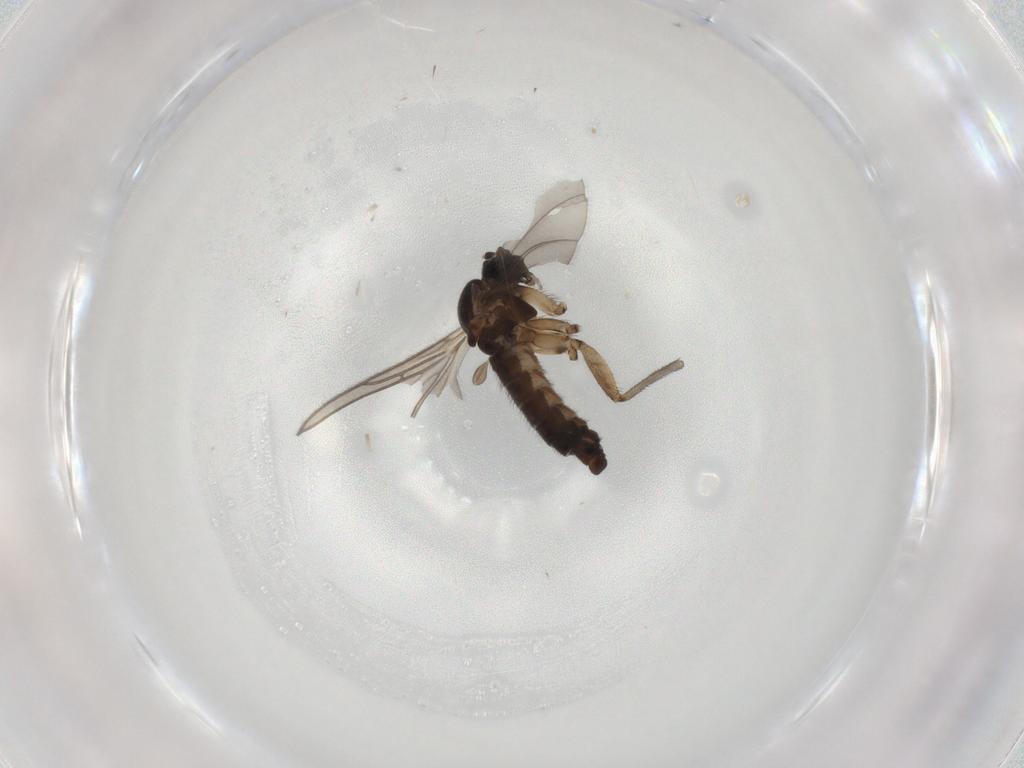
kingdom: Animalia
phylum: Arthropoda
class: Insecta
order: Diptera
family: Sciaridae
